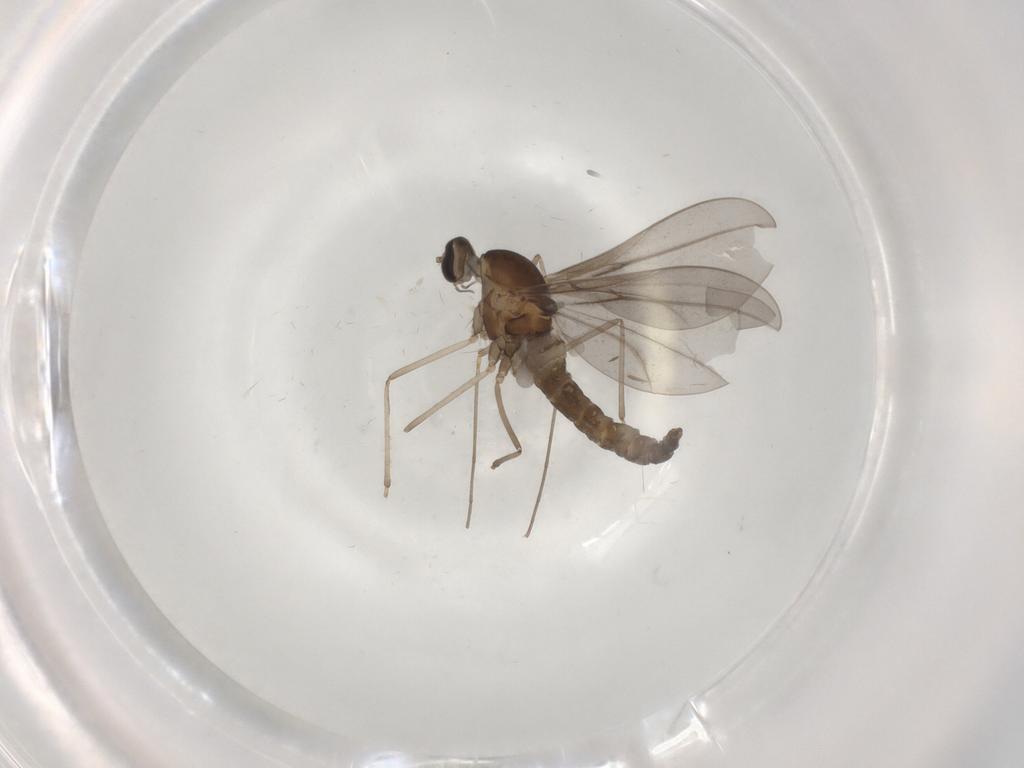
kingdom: Animalia
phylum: Arthropoda
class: Insecta
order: Diptera
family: Cecidomyiidae
